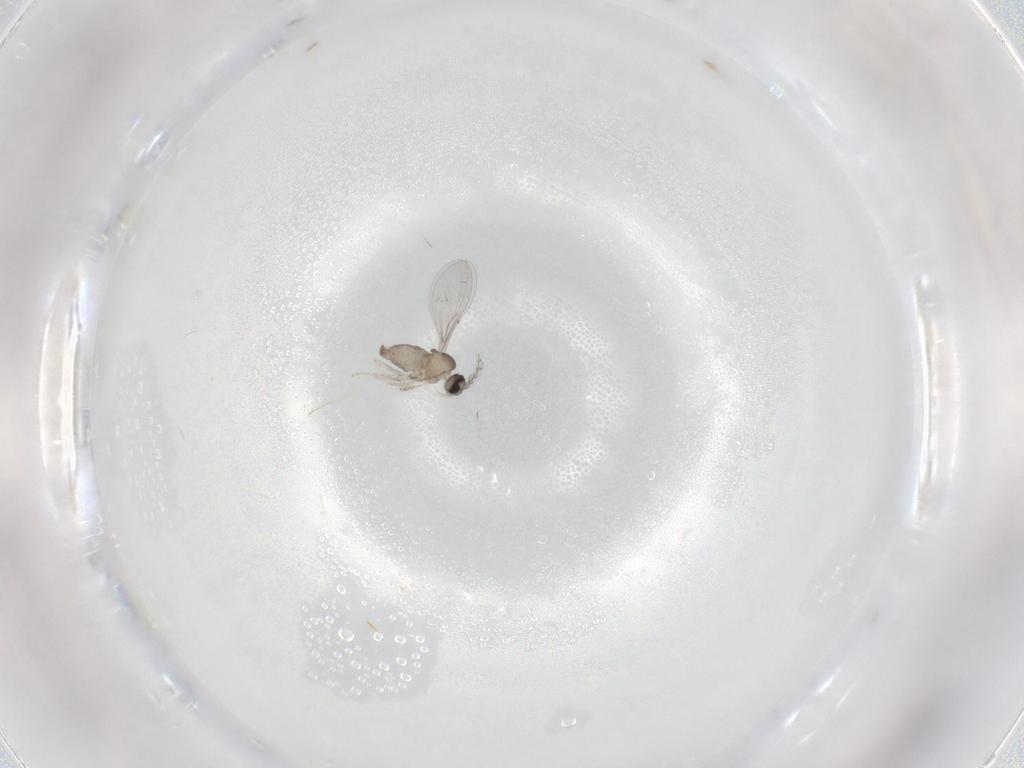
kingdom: Animalia
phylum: Arthropoda
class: Insecta
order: Diptera
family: Cecidomyiidae
